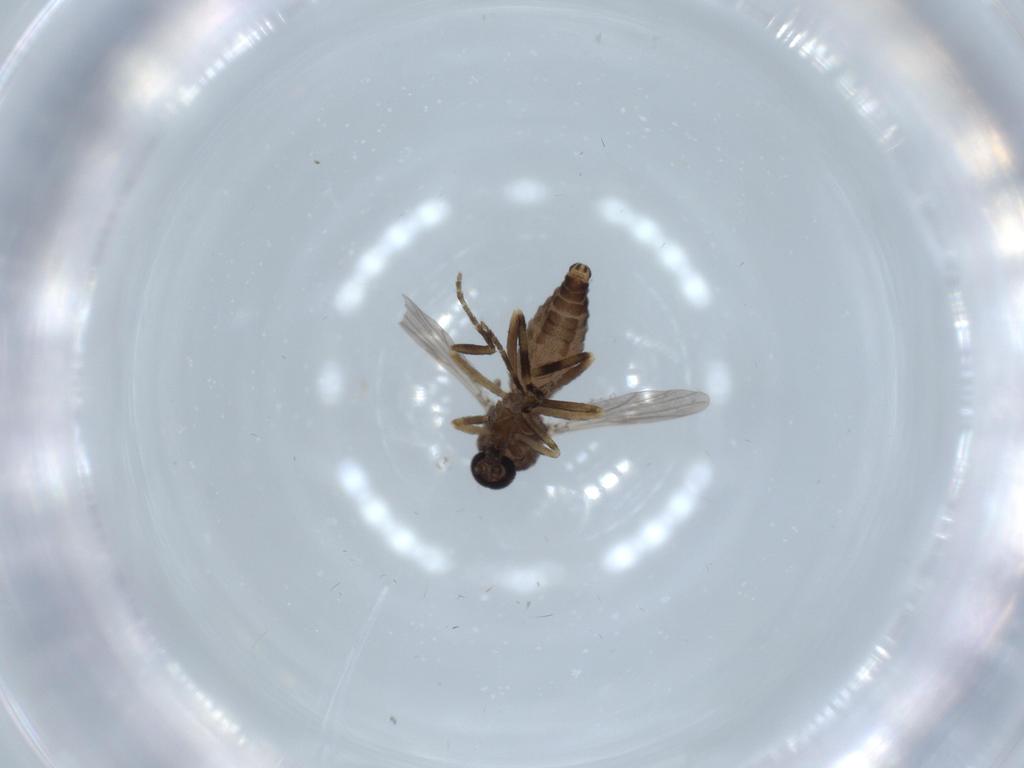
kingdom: Animalia
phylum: Arthropoda
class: Insecta
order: Diptera
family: Ceratopogonidae
